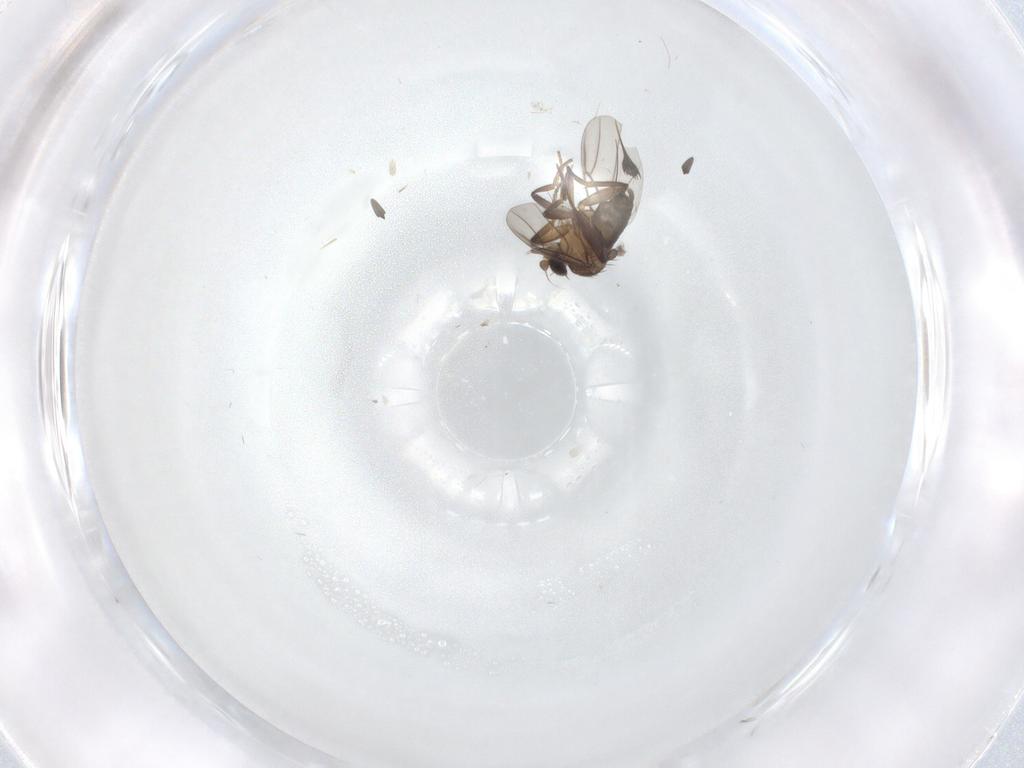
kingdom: Animalia
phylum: Arthropoda
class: Insecta
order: Diptera
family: Phoridae
